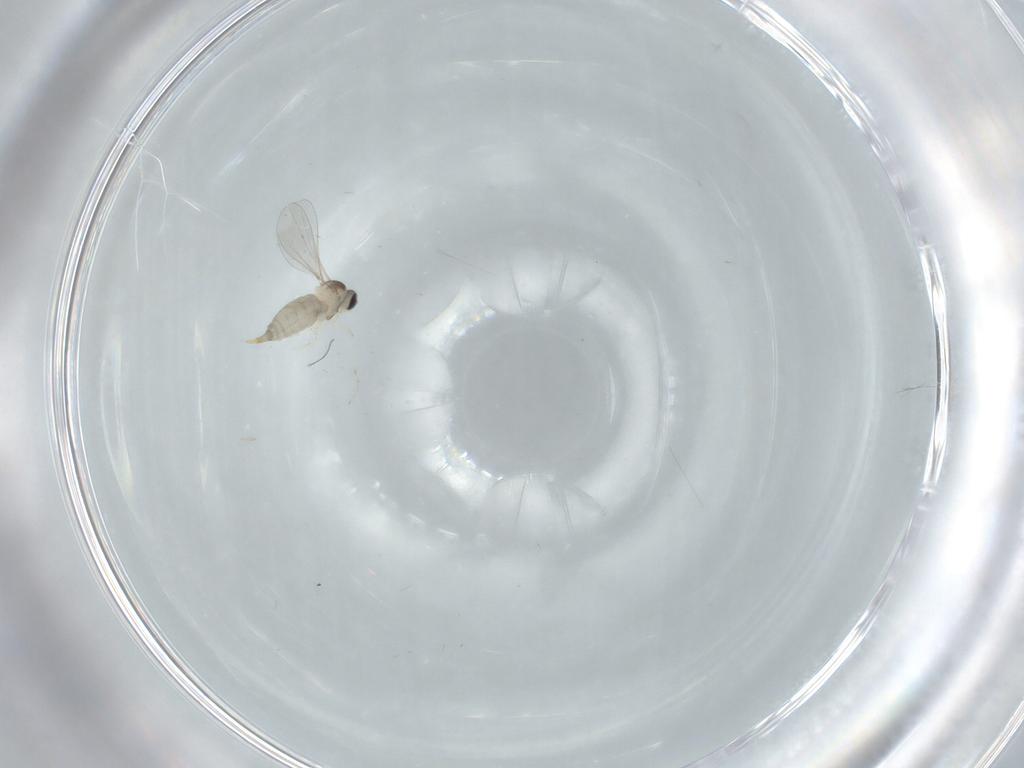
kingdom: Animalia
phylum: Arthropoda
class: Insecta
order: Diptera
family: Cecidomyiidae
